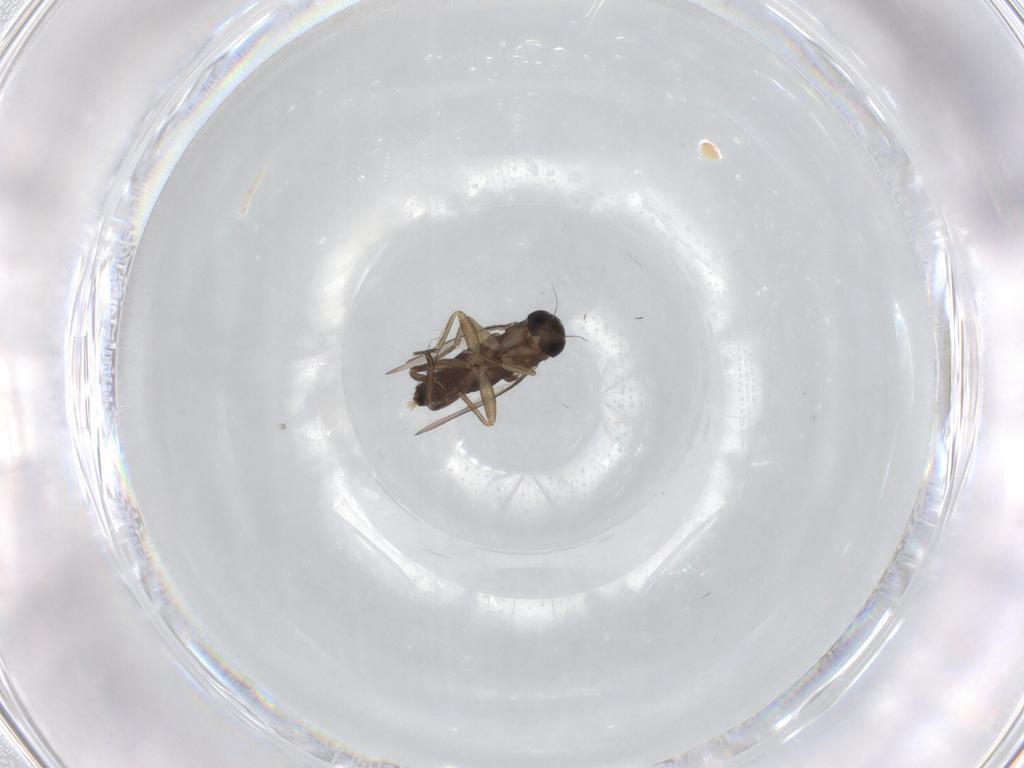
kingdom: Animalia
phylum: Arthropoda
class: Insecta
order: Diptera
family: Phoridae
